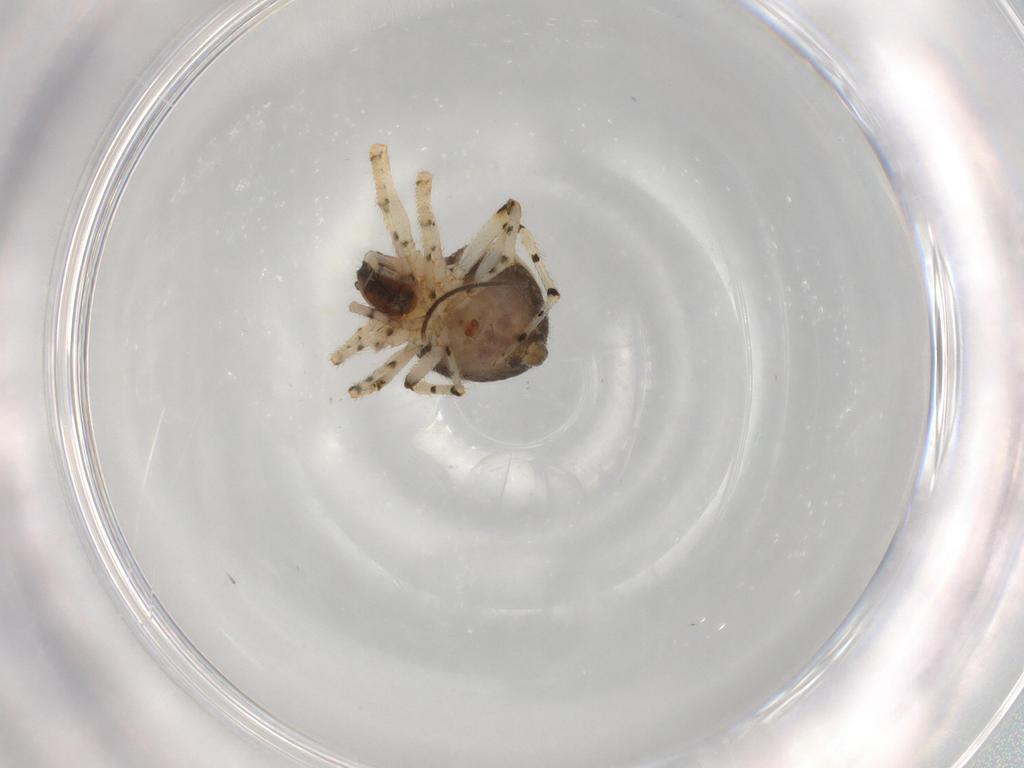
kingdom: Animalia
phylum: Arthropoda
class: Arachnida
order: Araneae
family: Theridiidae
